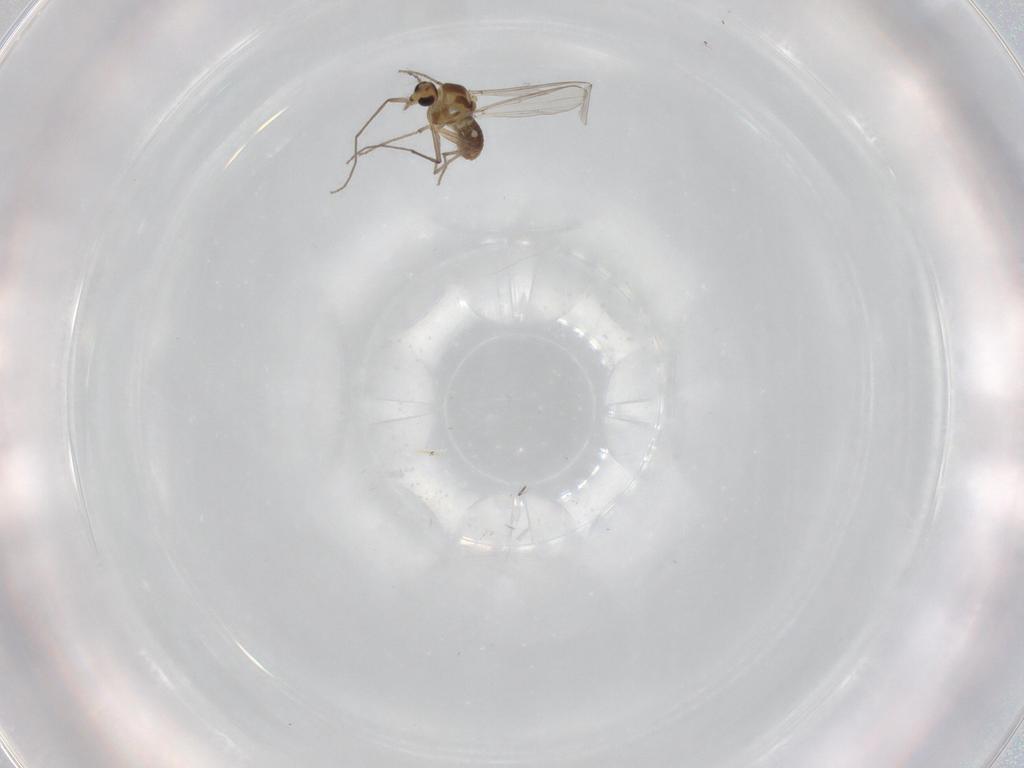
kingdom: Animalia
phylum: Arthropoda
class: Insecta
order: Diptera
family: Chironomidae
